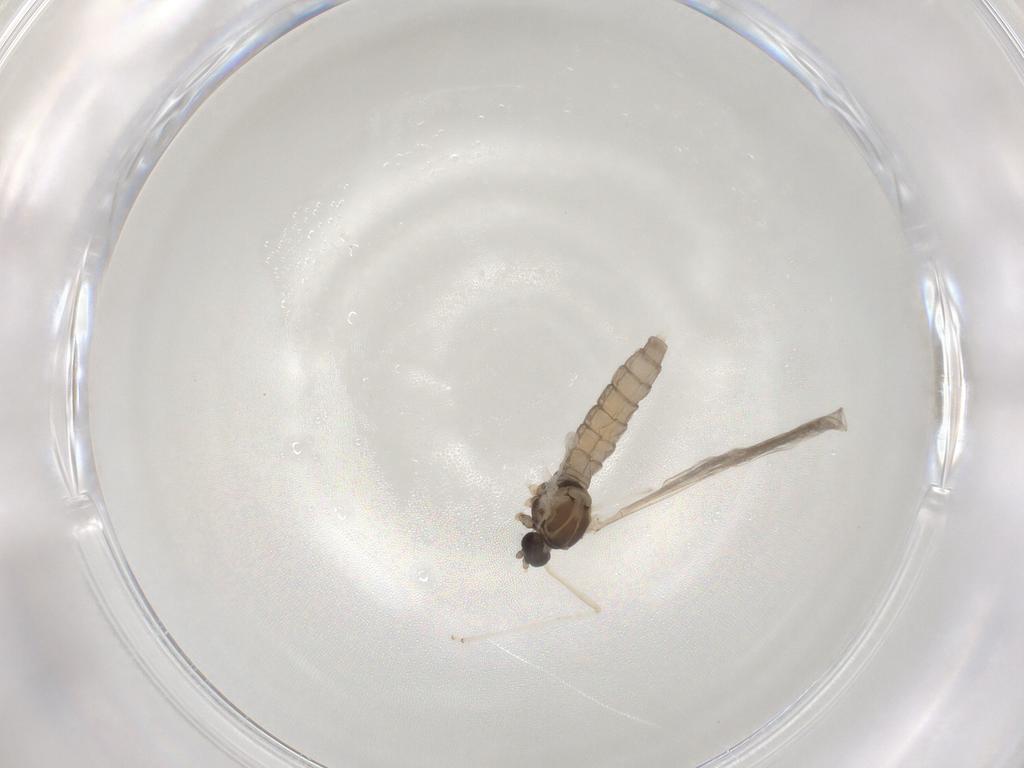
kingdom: Animalia
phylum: Arthropoda
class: Insecta
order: Diptera
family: Cecidomyiidae
